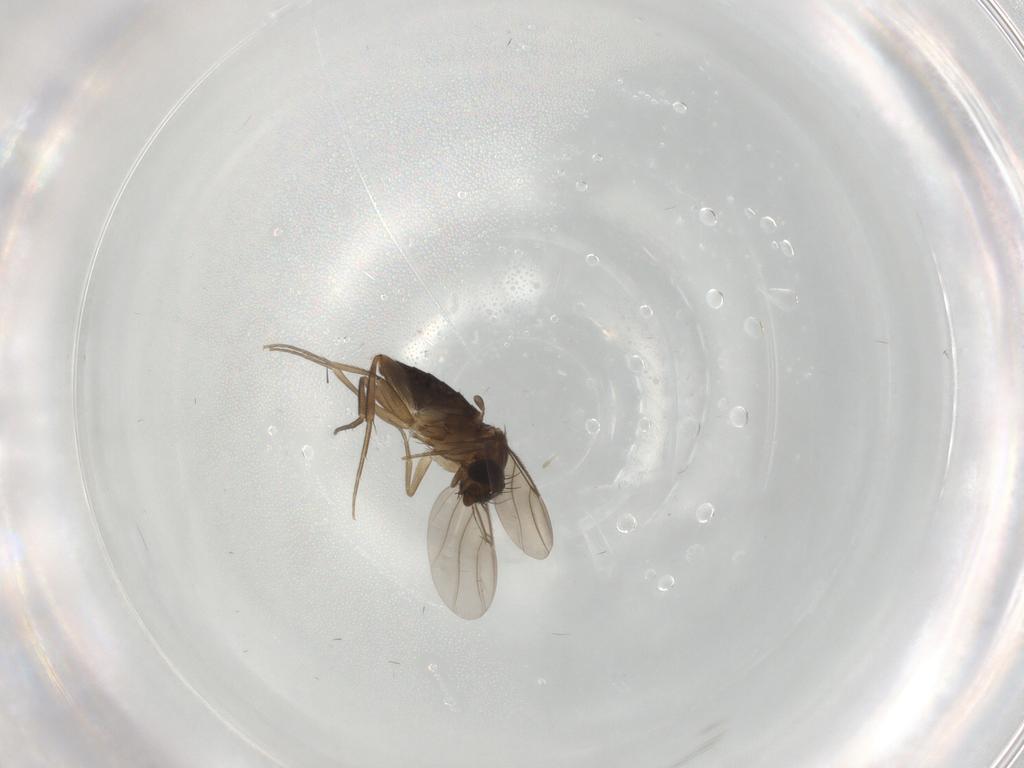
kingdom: Animalia
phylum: Arthropoda
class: Insecta
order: Diptera
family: Phoridae
